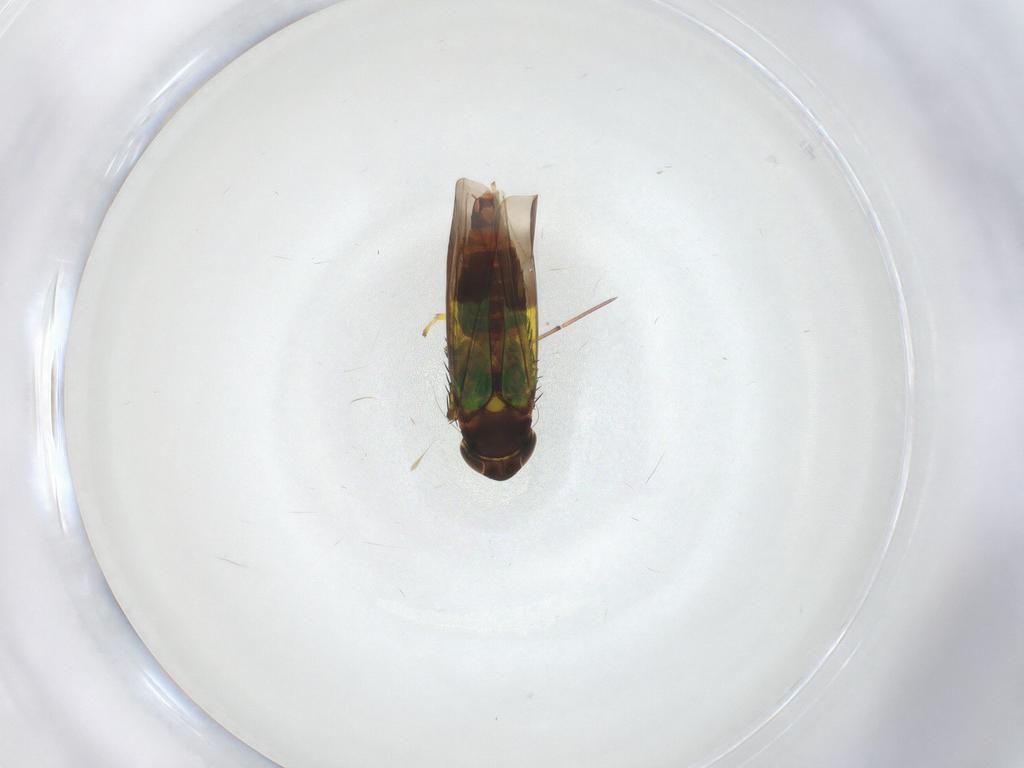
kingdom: Animalia
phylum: Arthropoda
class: Insecta
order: Hemiptera
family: Cicadellidae
